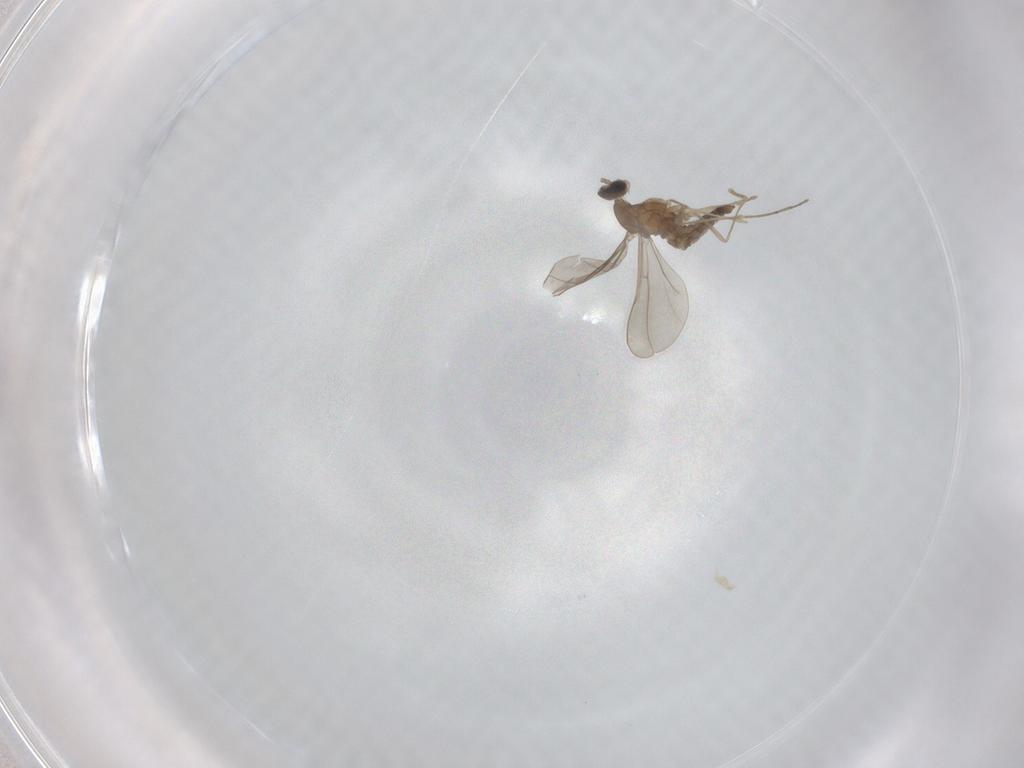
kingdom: Animalia
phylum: Arthropoda
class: Insecta
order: Diptera
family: Cecidomyiidae
